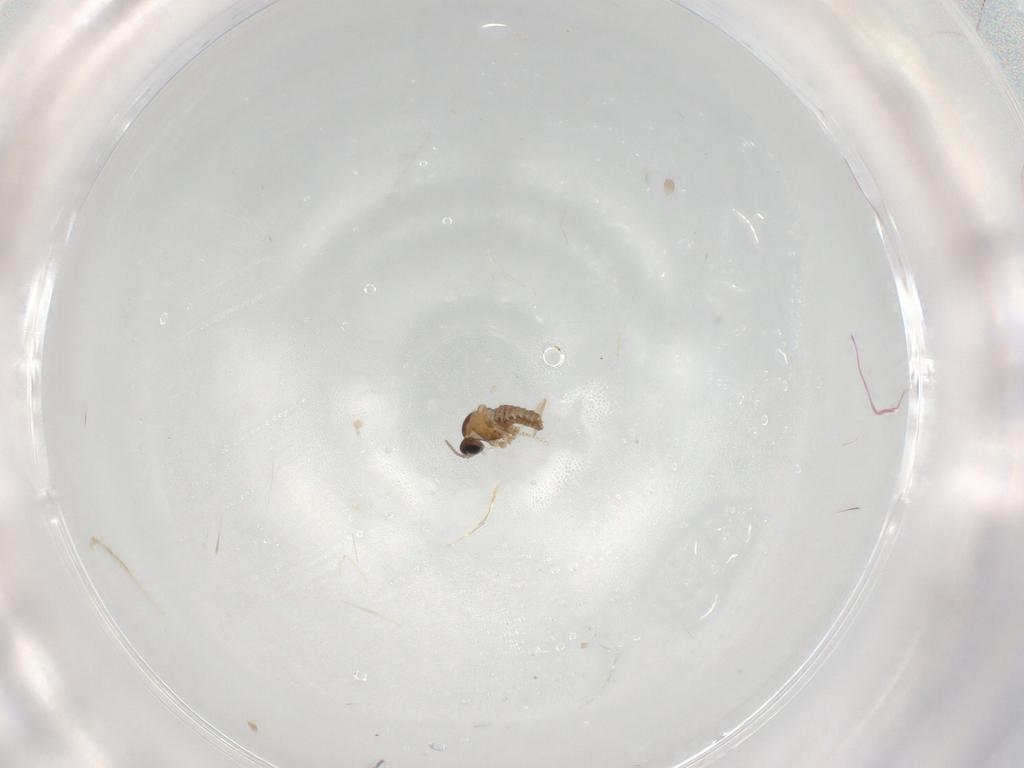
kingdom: Animalia
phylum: Arthropoda
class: Insecta
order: Diptera
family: Cecidomyiidae
